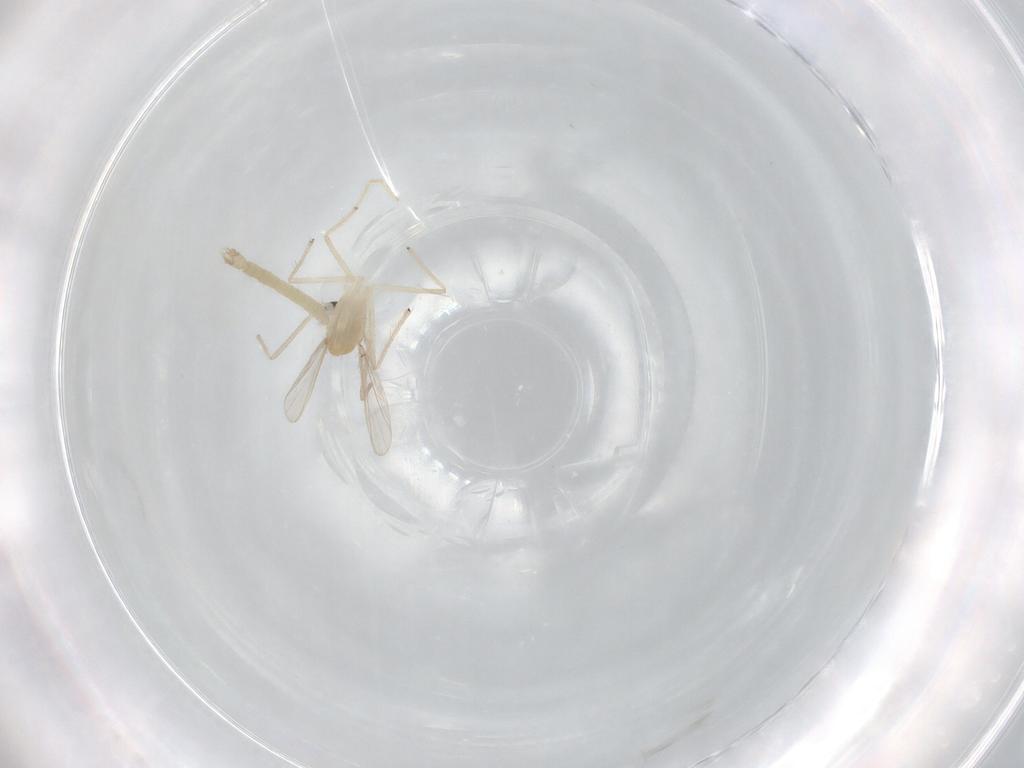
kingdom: Animalia
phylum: Arthropoda
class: Insecta
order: Diptera
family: Chironomidae
